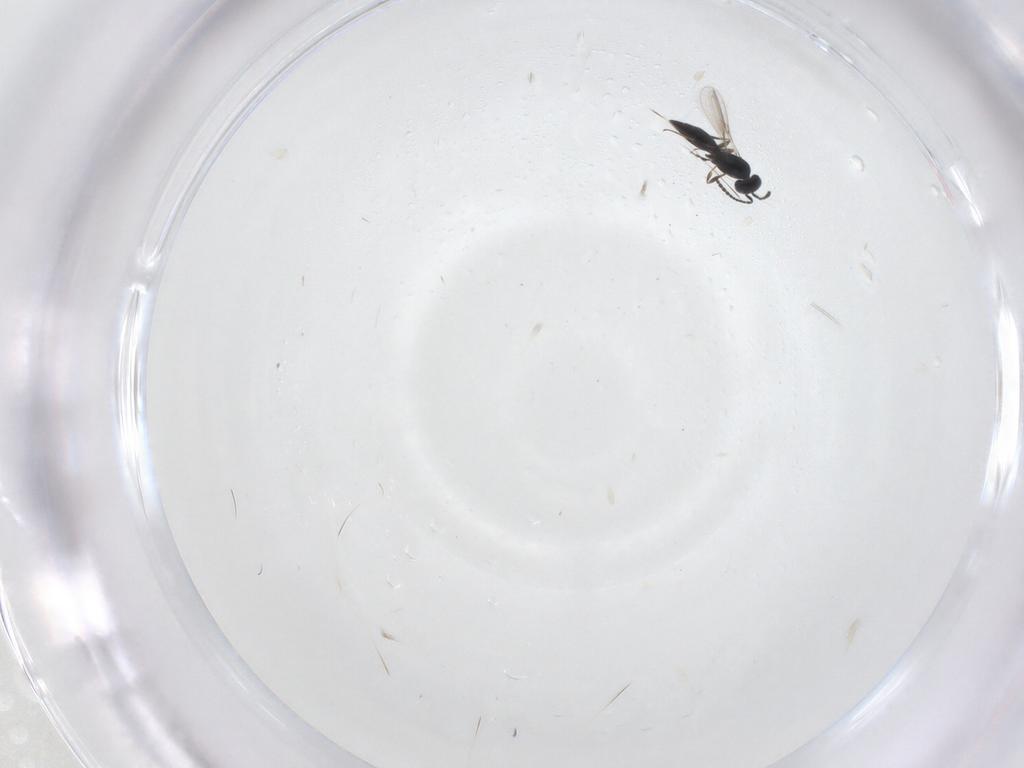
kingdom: Animalia
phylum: Arthropoda
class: Insecta
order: Hymenoptera
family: Scelionidae
